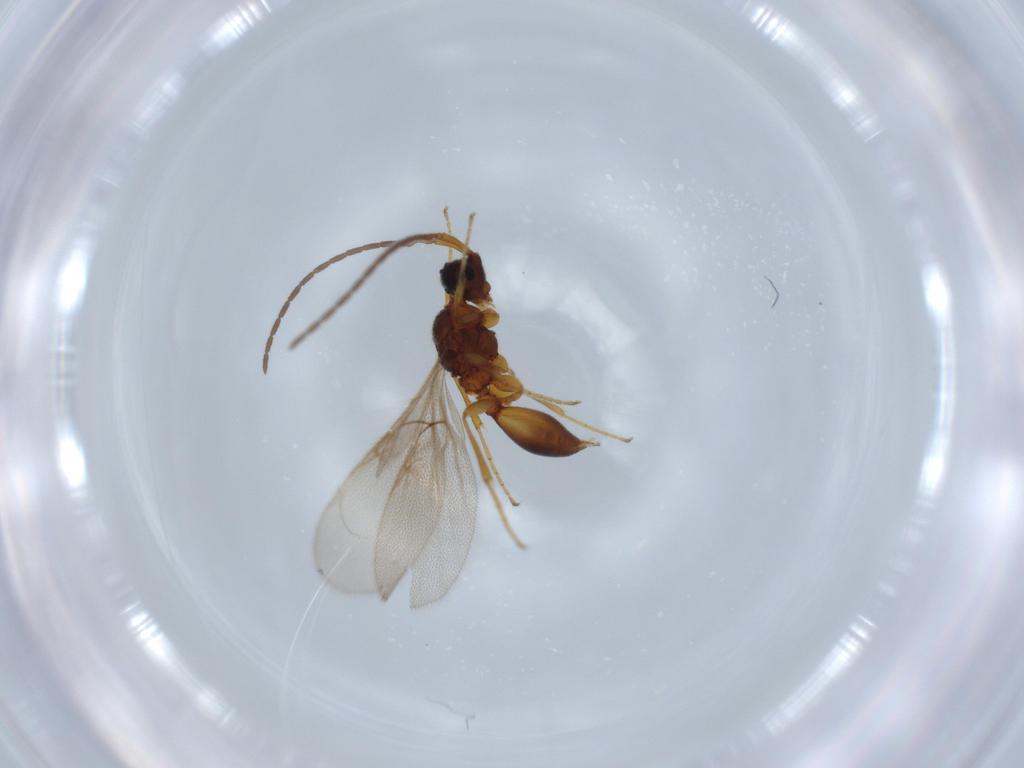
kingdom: Animalia
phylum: Arthropoda
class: Insecta
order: Hymenoptera
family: Diapriidae
